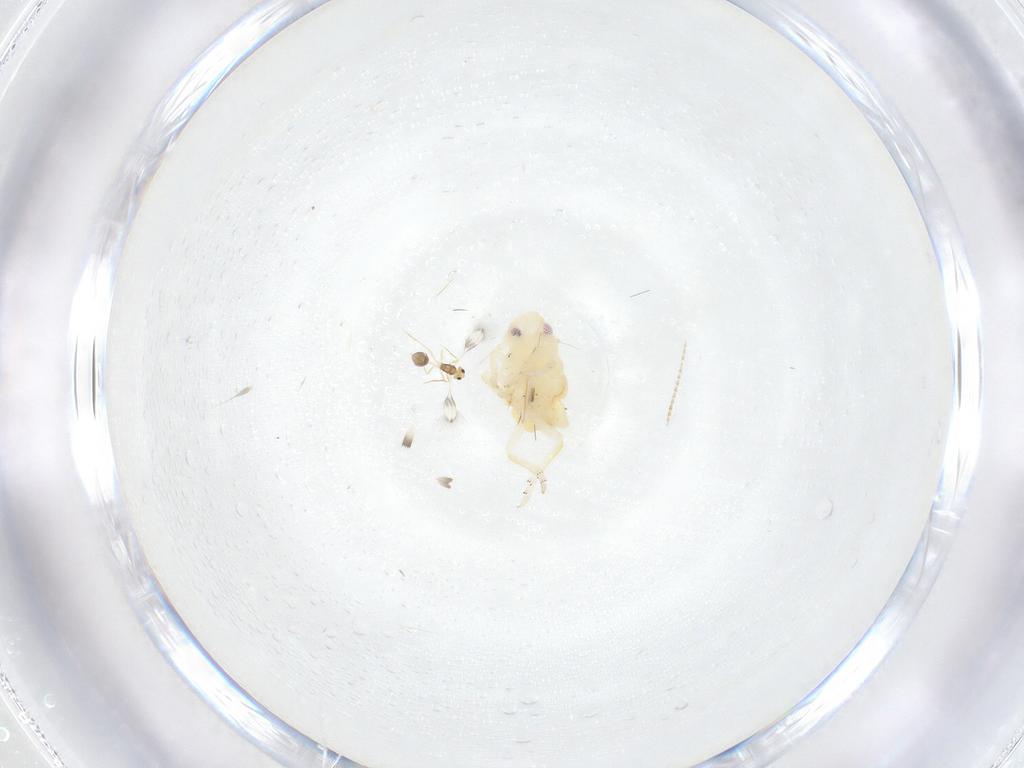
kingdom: Animalia
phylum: Arthropoda
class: Insecta
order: Hemiptera
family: Fulgoroidea_incertae_sedis
